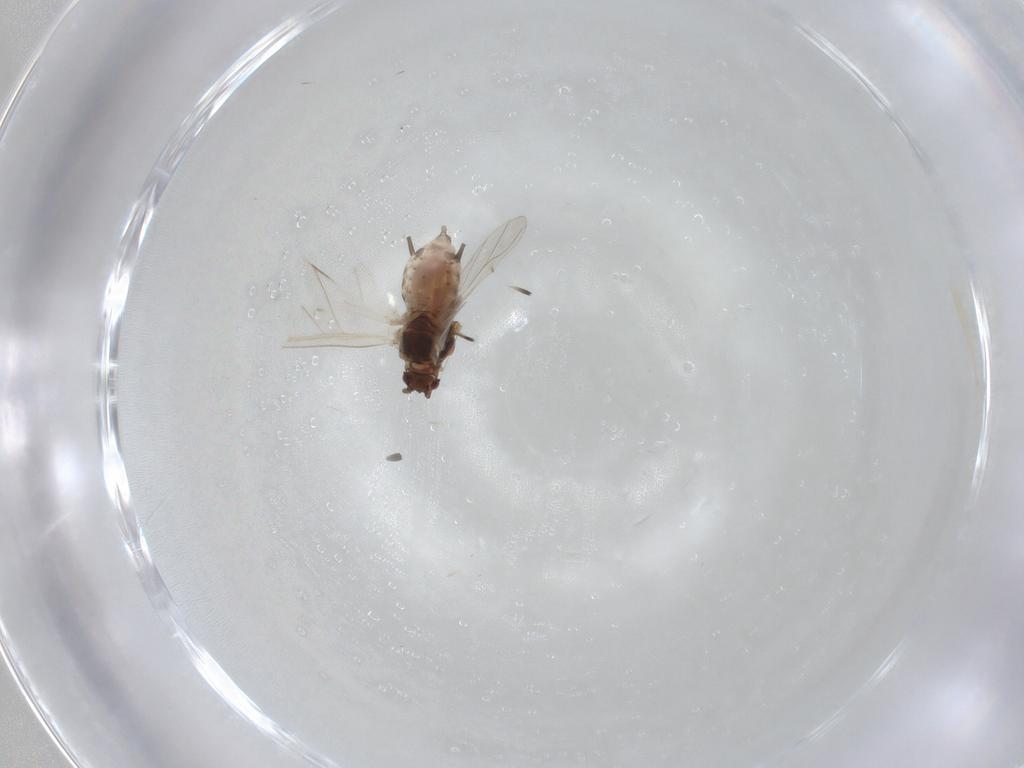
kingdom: Animalia
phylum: Arthropoda
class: Insecta
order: Hemiptera
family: Aphididae
